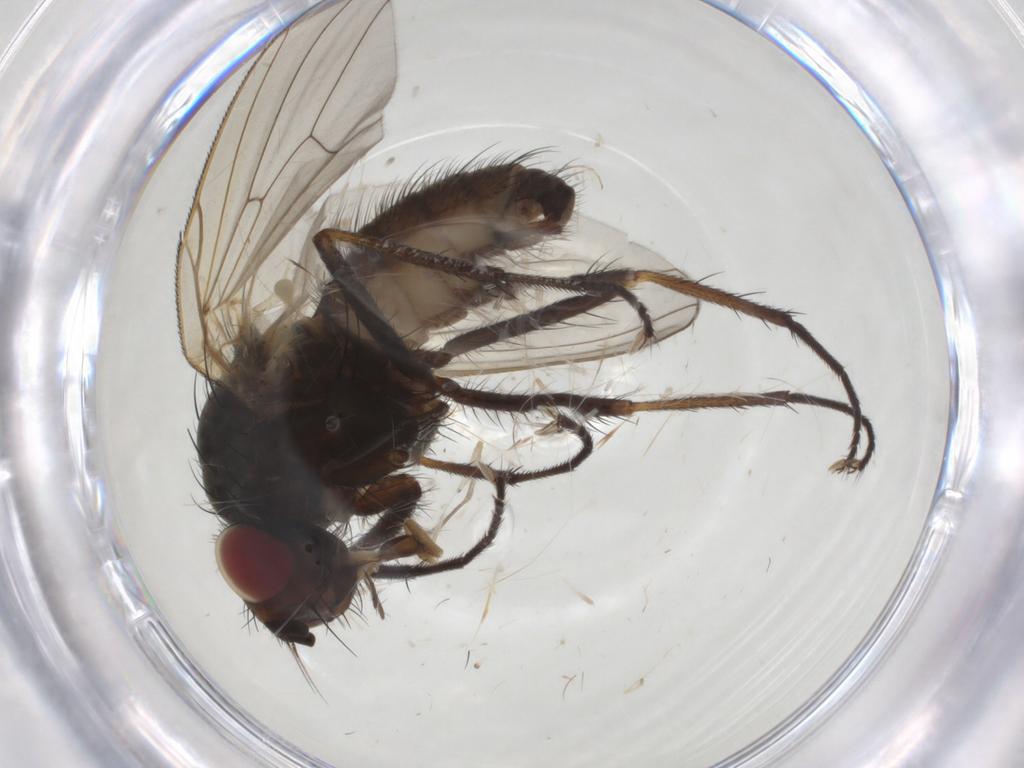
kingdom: Animalia
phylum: Arthropoda
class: Insecta
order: Diptera
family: Anthomyiidae
